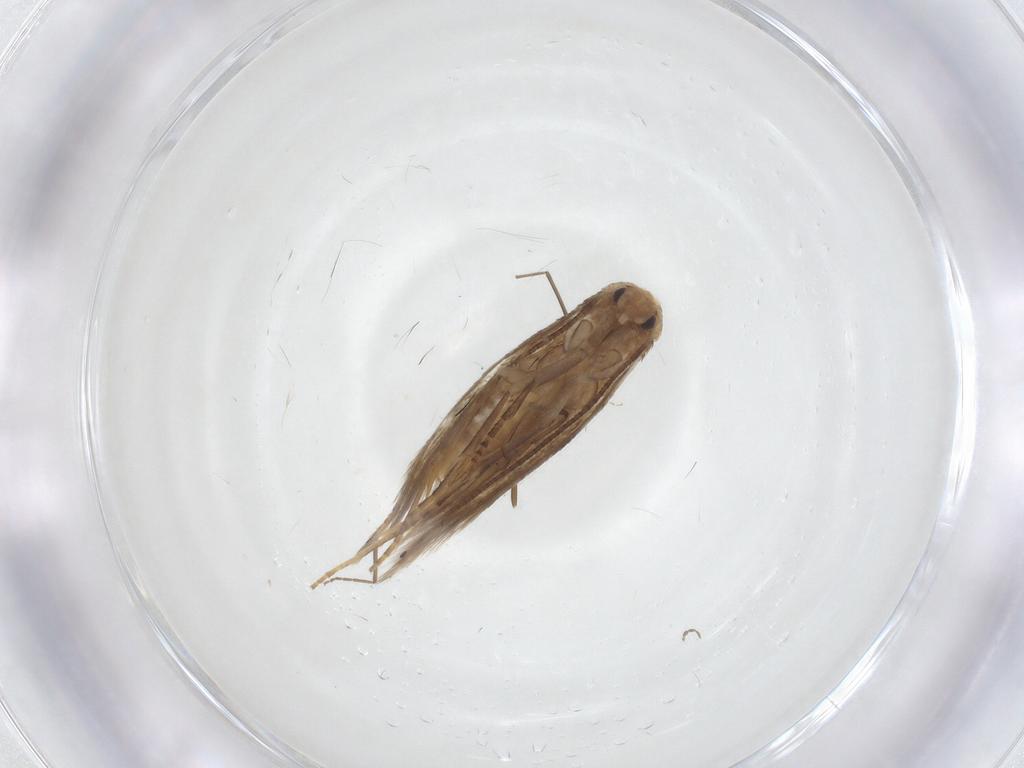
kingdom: Animalia
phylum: Arthropoda
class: Insecta
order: Lepidoptera
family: Bucculatricidae
